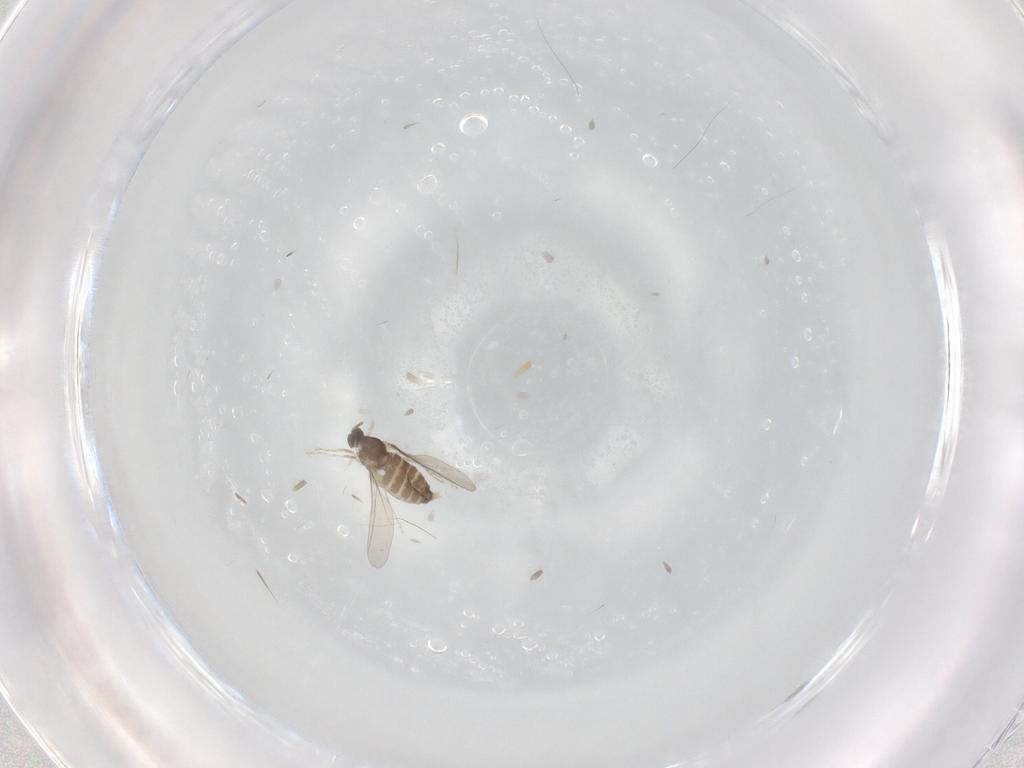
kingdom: Animalia
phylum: Arthropoda
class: Insecta
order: Diptera
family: Cecidomyiidae
